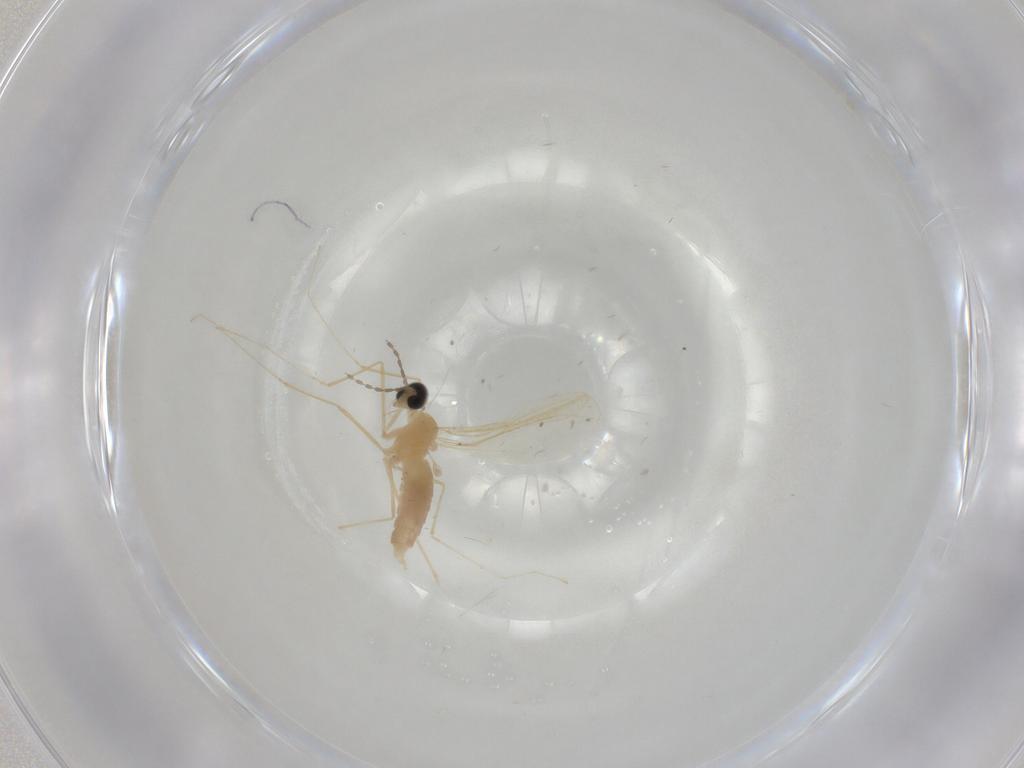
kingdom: Animalia
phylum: Arthropoda
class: Insecta
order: Diptera
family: Cecidomyiidae
